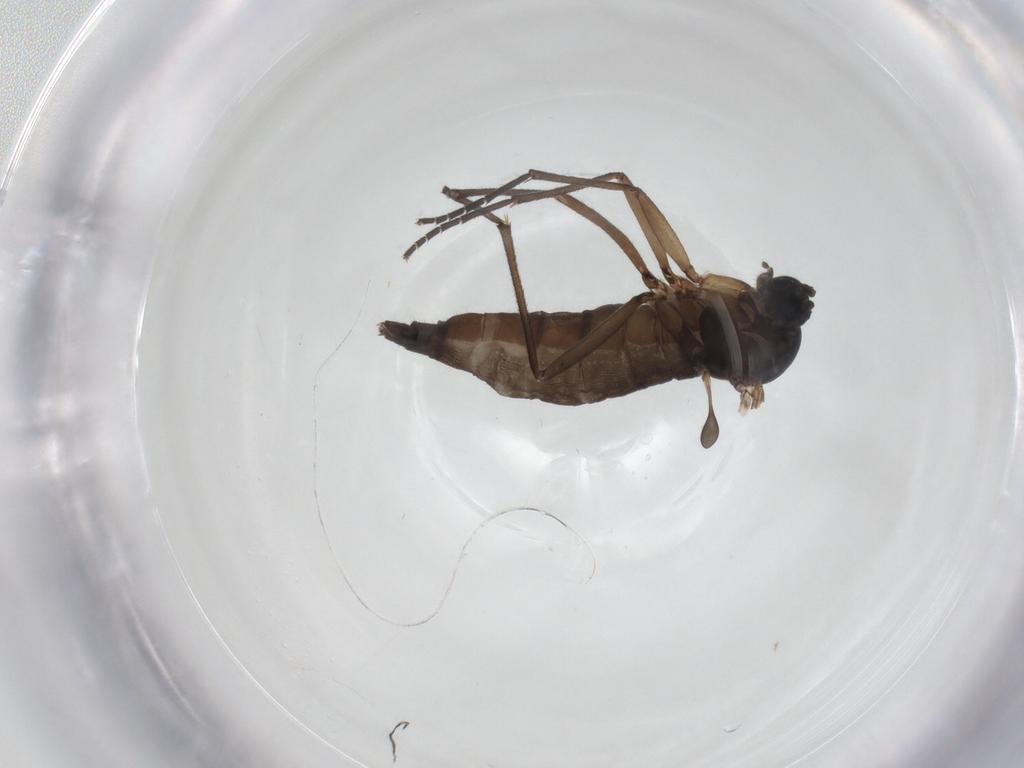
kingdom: Animalia
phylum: Arthropoda
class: Insecta
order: Diptera
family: Sciaridae
